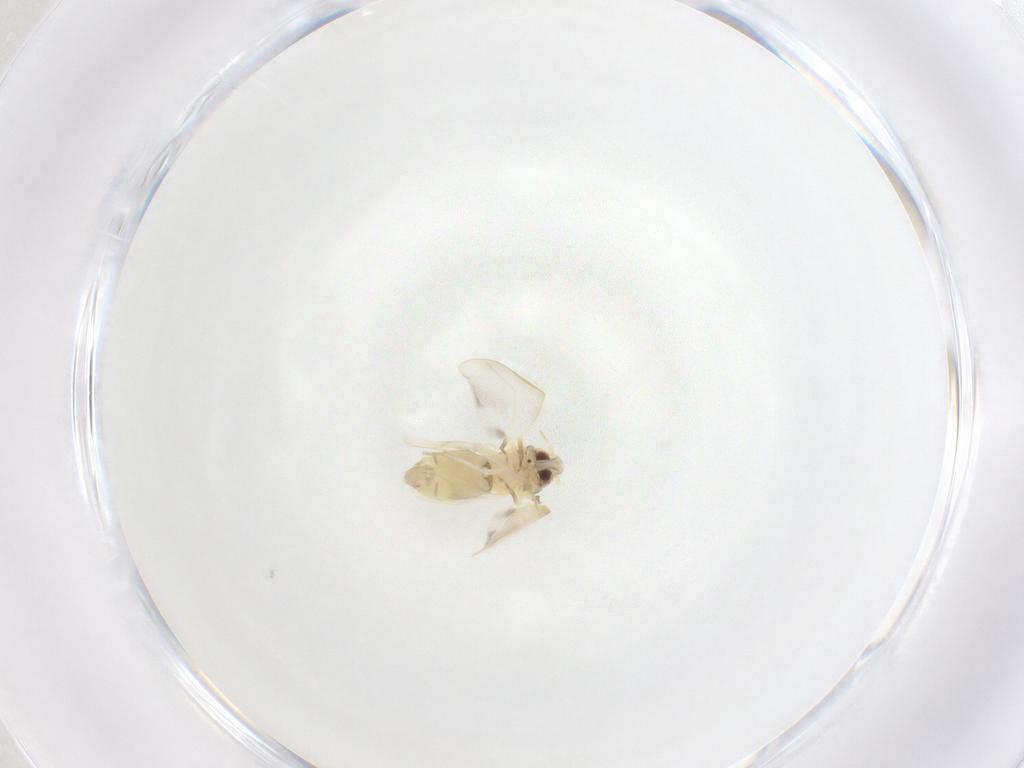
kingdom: Animalia
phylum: Arthropoda
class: Insecta
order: Hemiptera
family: Aleyrodidae
